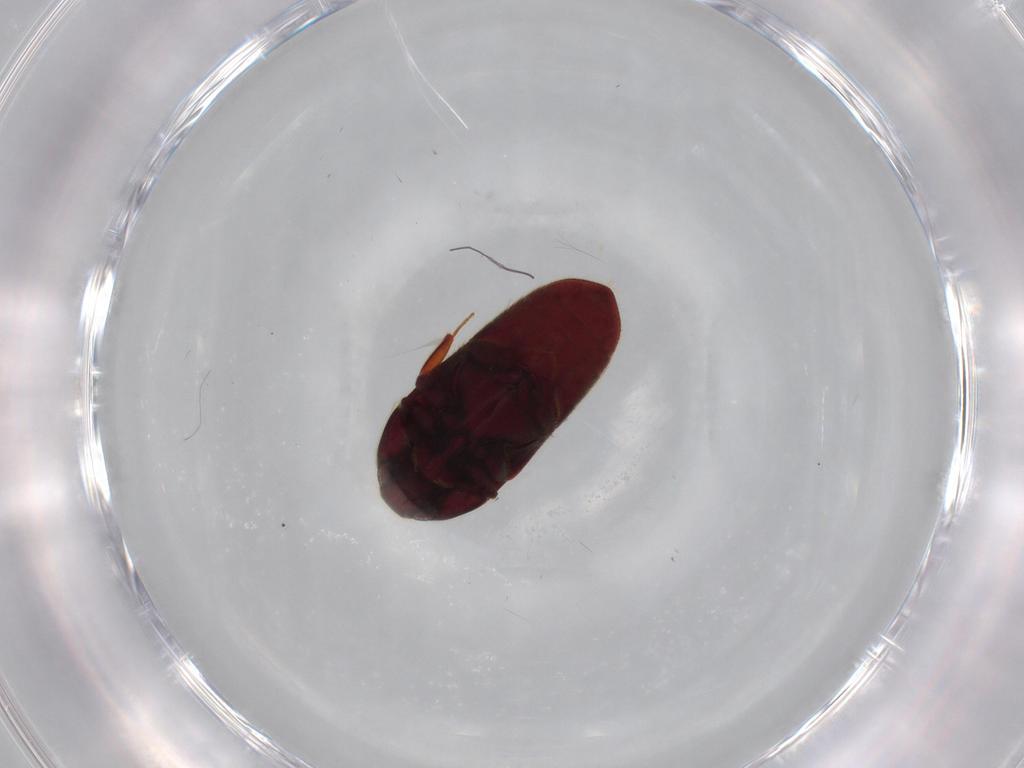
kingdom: Animalia
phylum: Arthropoda
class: Insecta
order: Coleoptera
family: Throscidae
